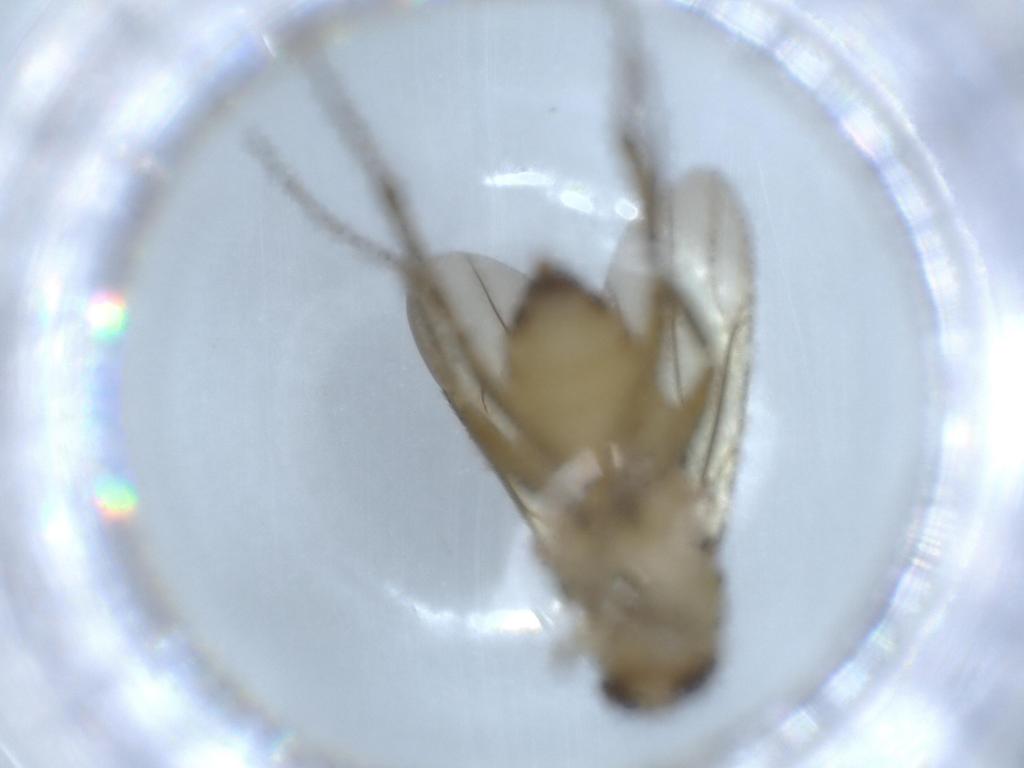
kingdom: Animalia
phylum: Arthropoda
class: Insecta
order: Diptera
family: Phoridae
